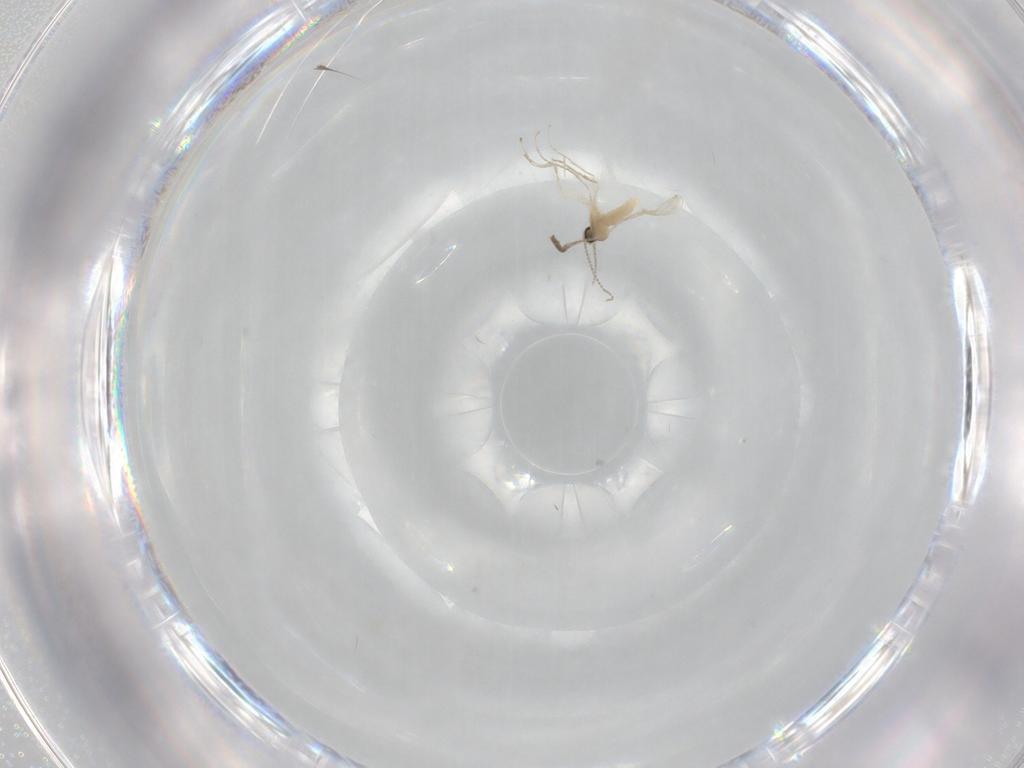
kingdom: Animalia
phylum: Arthropoda
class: Insecta
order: Diptera
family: Cecidomyiidae
